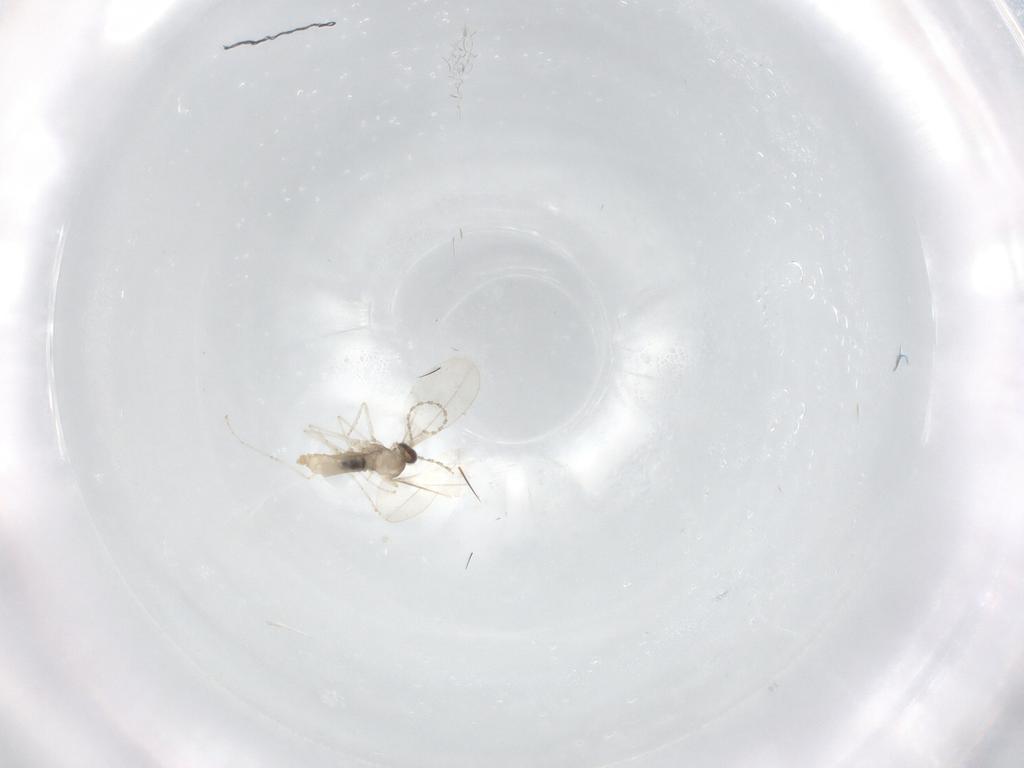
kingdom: Animalia
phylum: Arthropoda
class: Insecta
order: Diptera
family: Cecidomyiidae
